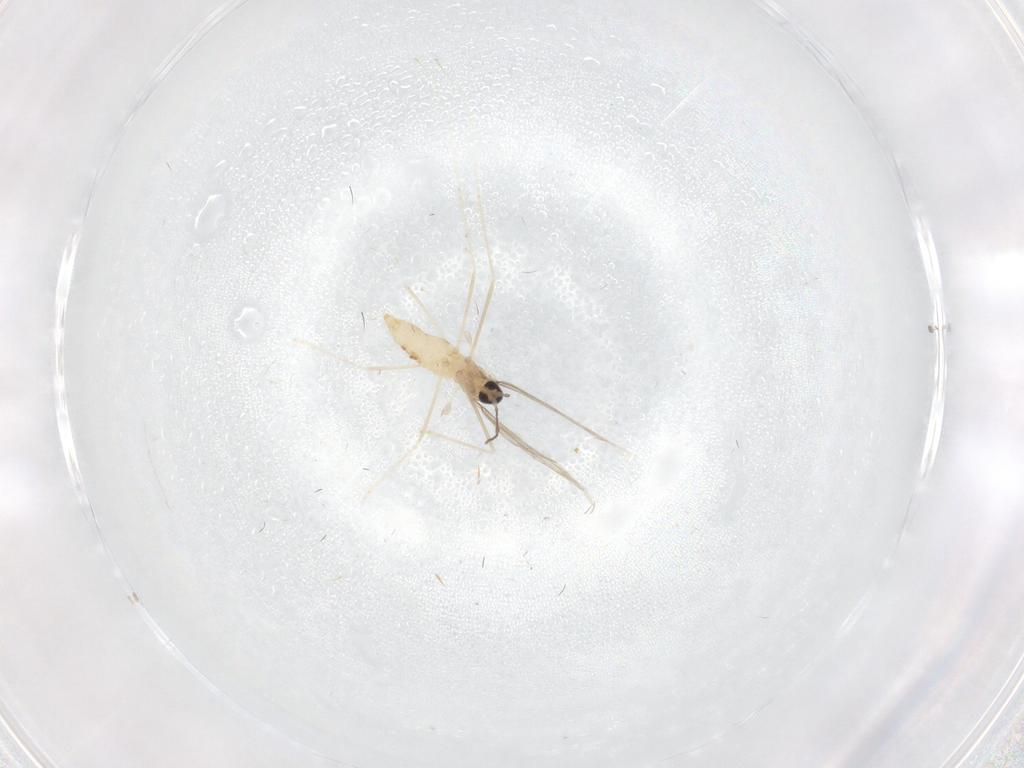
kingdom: Animalia
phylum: Arthropoda
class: Insecta
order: Diptera
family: Cecidomyiidae
